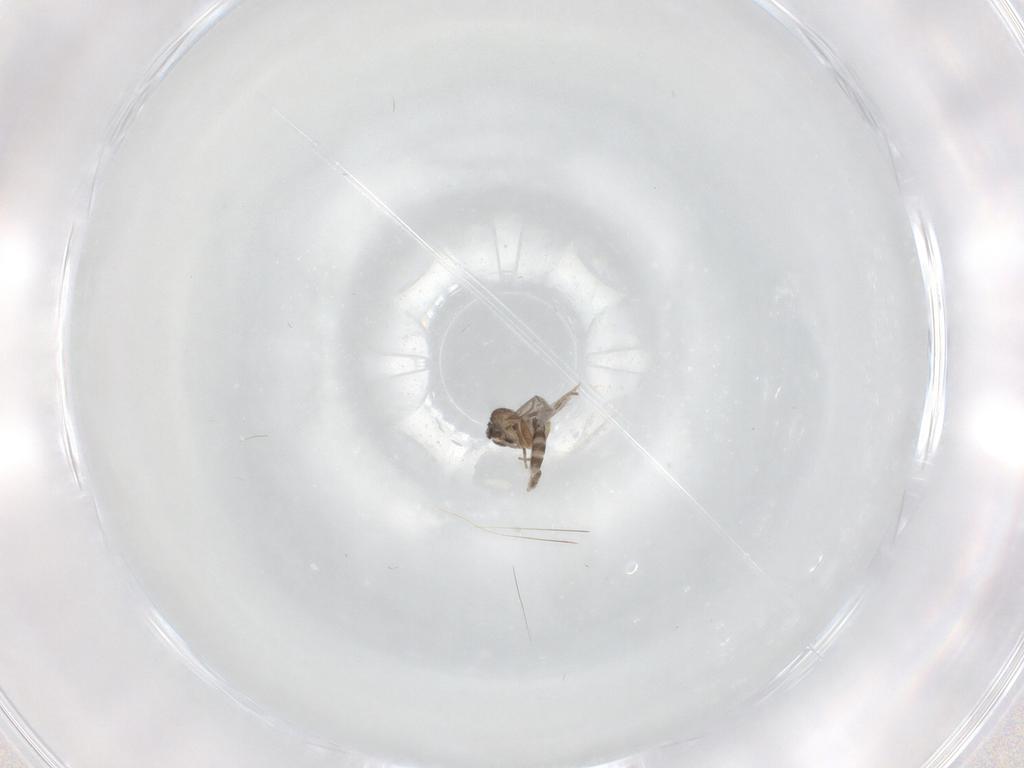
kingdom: Animalia
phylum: Arthropoda
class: Insecta
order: Diptera
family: Cecidomyiidae
